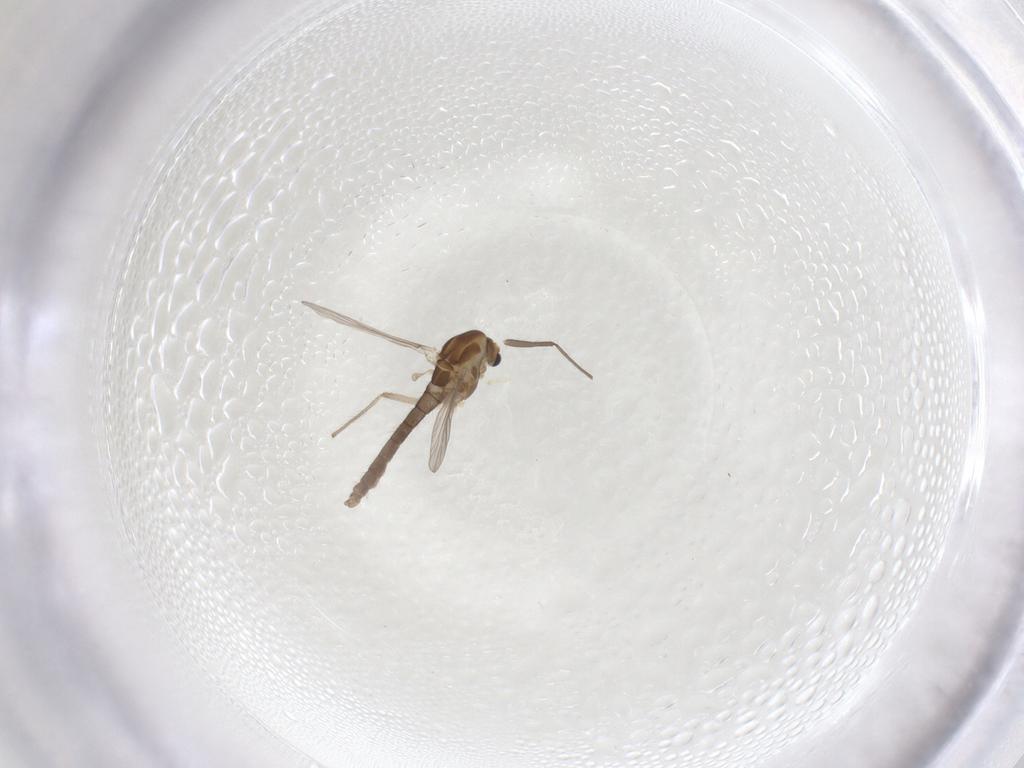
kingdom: Animalia
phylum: Arthropoda
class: Insecta
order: Diptera
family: Chironomidae
